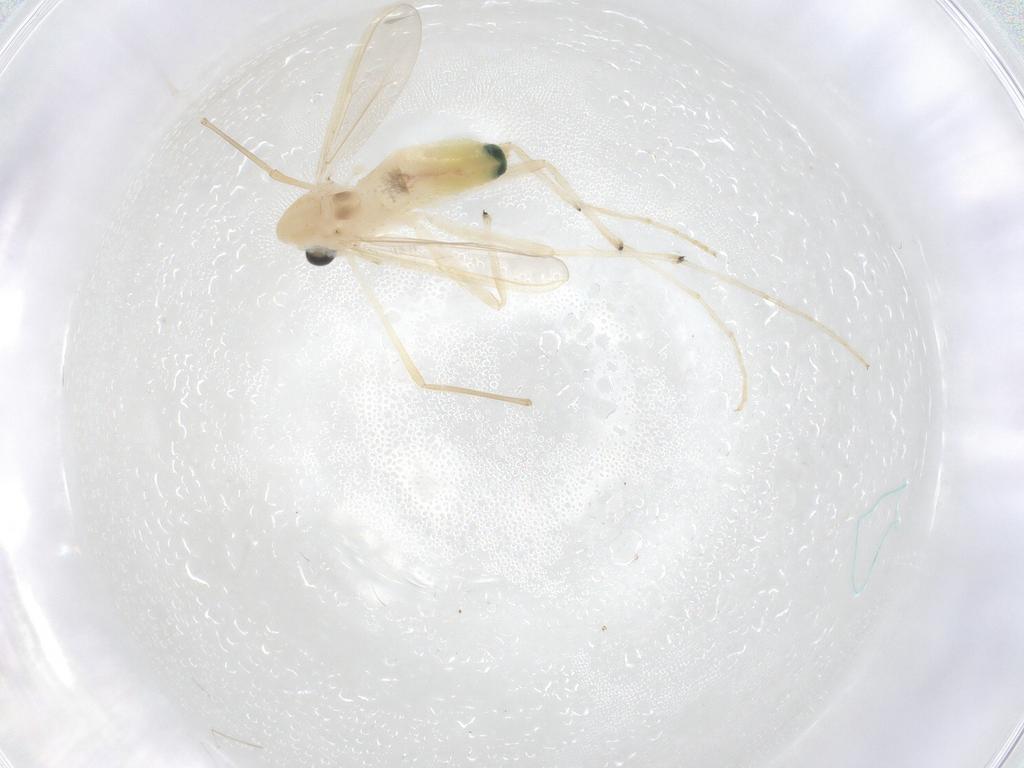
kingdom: Animalia
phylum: Arthropoda
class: Insecta
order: Diptera
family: Chironomidae
